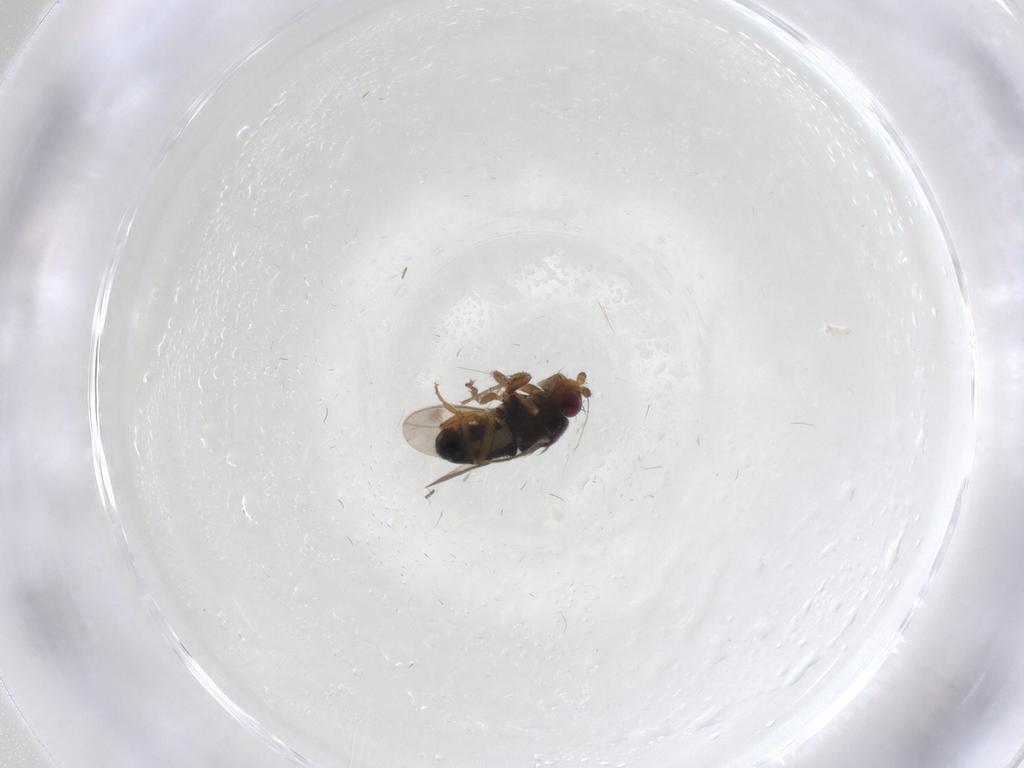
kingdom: Animalia
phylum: Arthropoda
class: Insecta
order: Diptera
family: Sphaeroceridae
